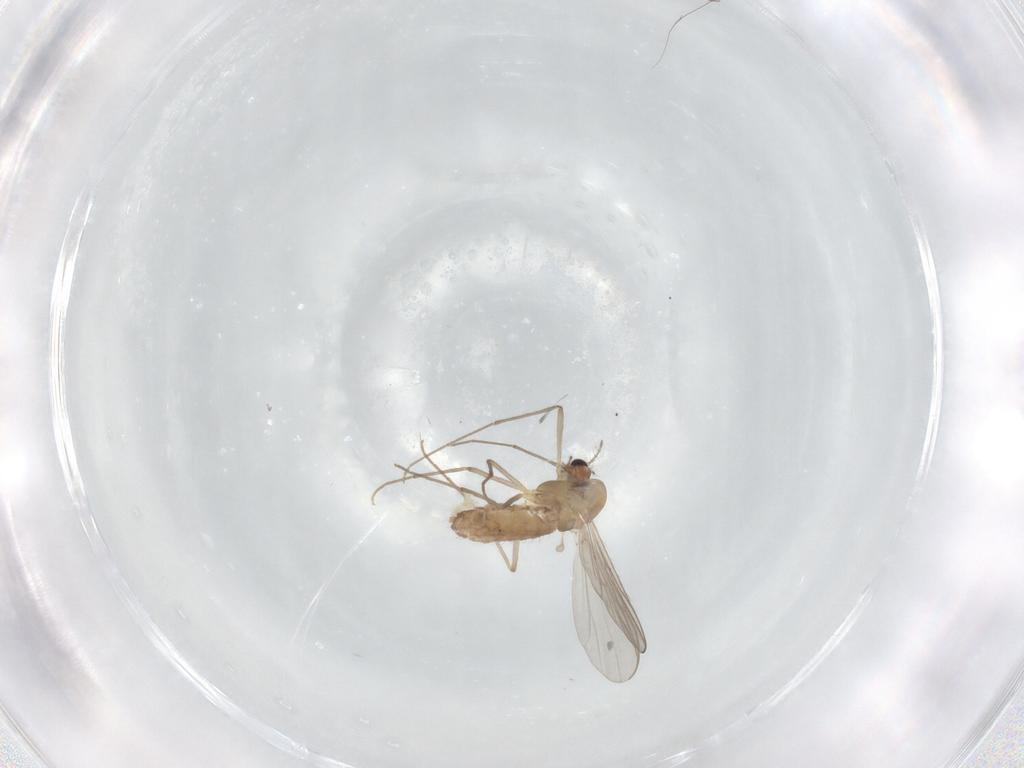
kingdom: Animalia
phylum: Arthropoda
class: Insecta
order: Diptera
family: Chironomidae
